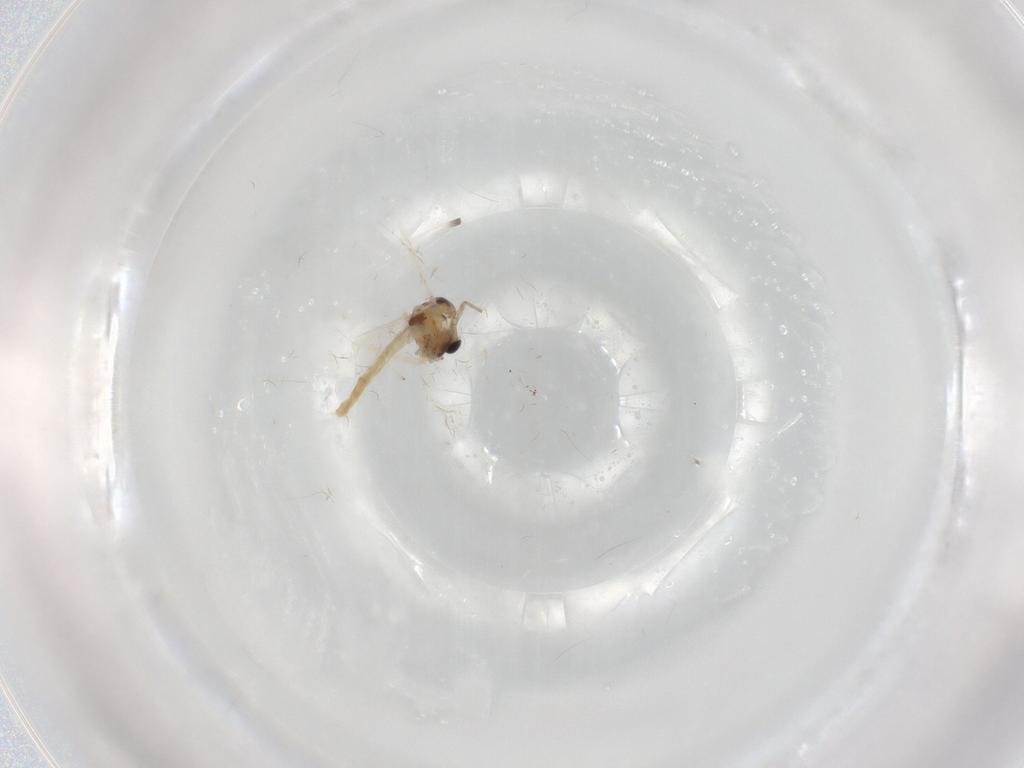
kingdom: Animalia
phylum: Arthropoda
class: Insecta
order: Diptera
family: Chironomidae
